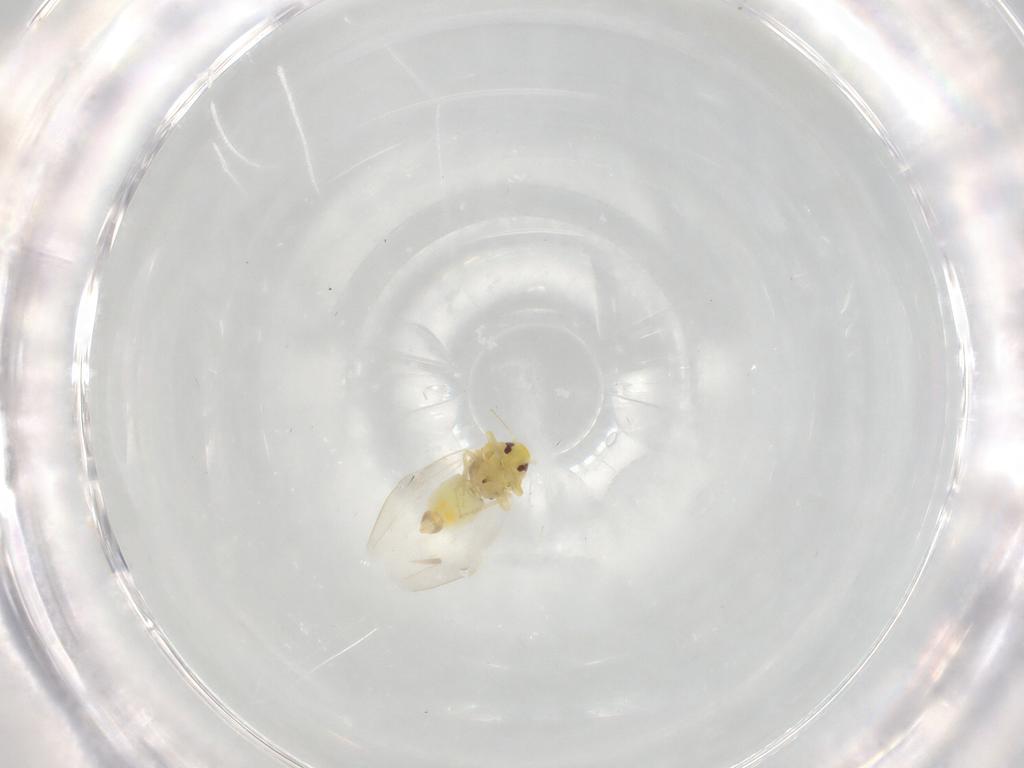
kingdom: Animalia
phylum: Arthropoda
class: Insecta
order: Hemiptera
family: Aleyrodidae
